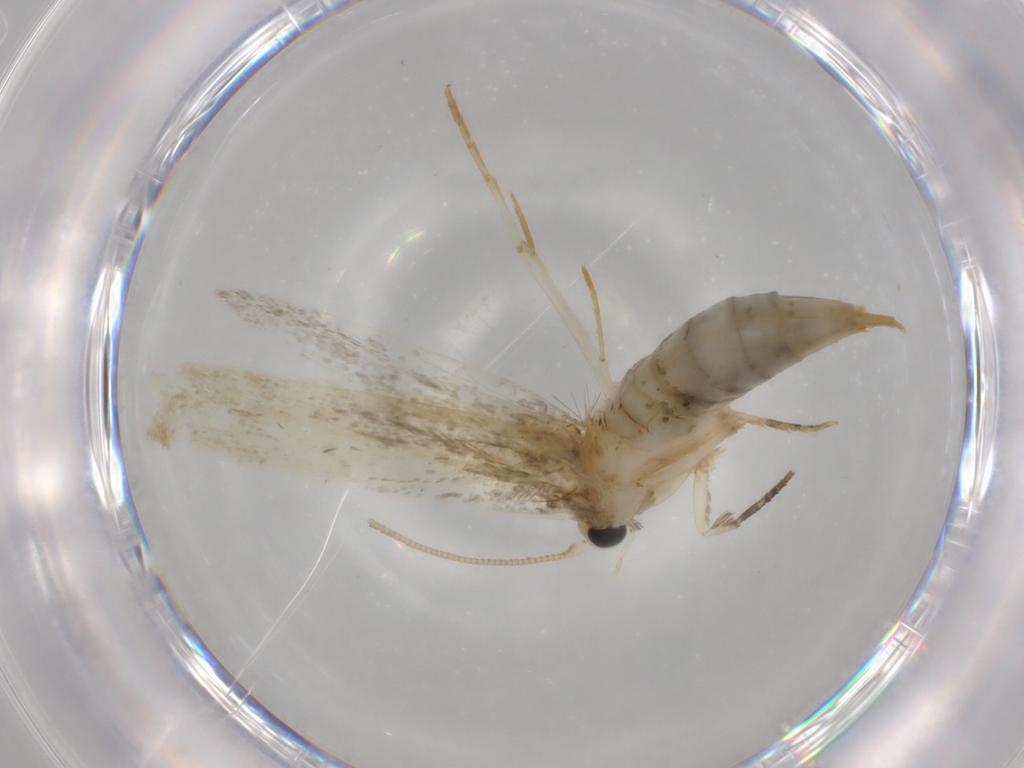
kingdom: Animalia
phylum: Arthropoda
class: Insecta
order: Lepidoptera
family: Tineidae
